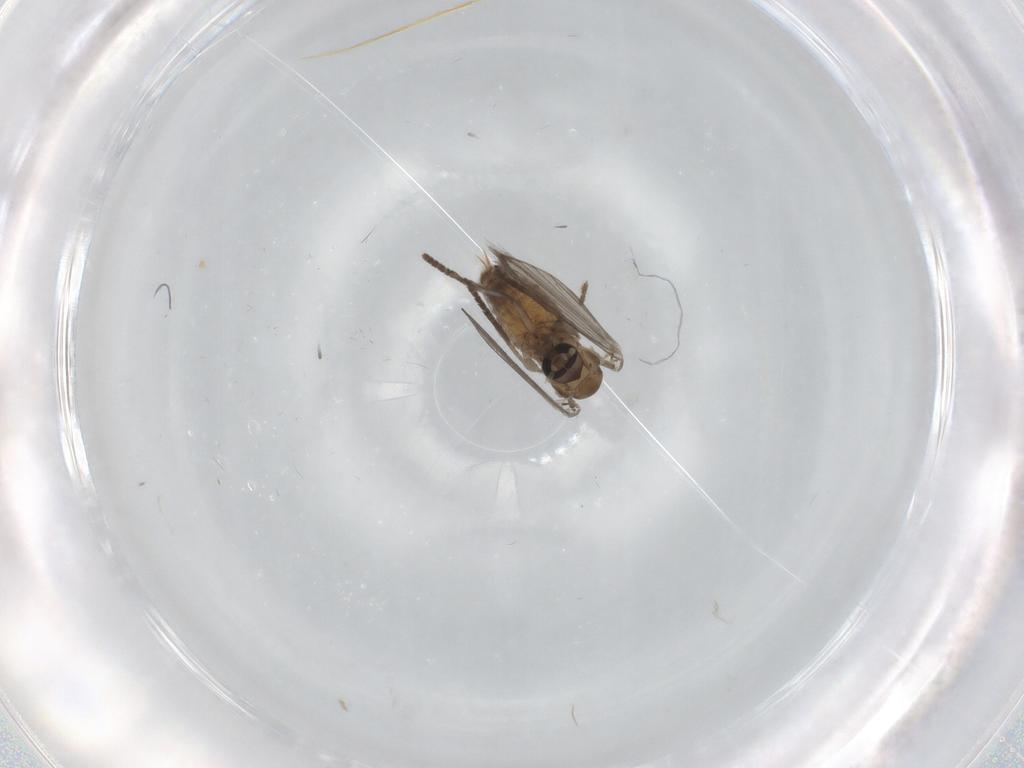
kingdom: Animalia
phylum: Arthropoda
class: Insecta
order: Diptera
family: Psychodidae
